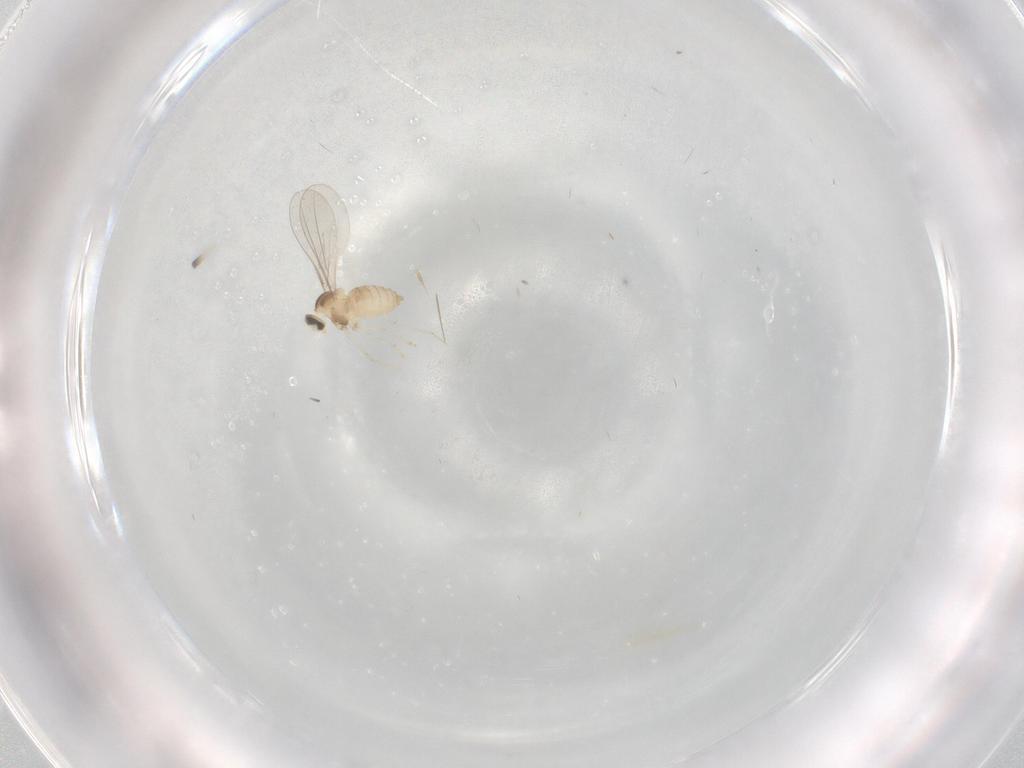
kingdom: Animalia
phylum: Arthropoda
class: Insecta
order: Diptera
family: Cecidomyiidae
